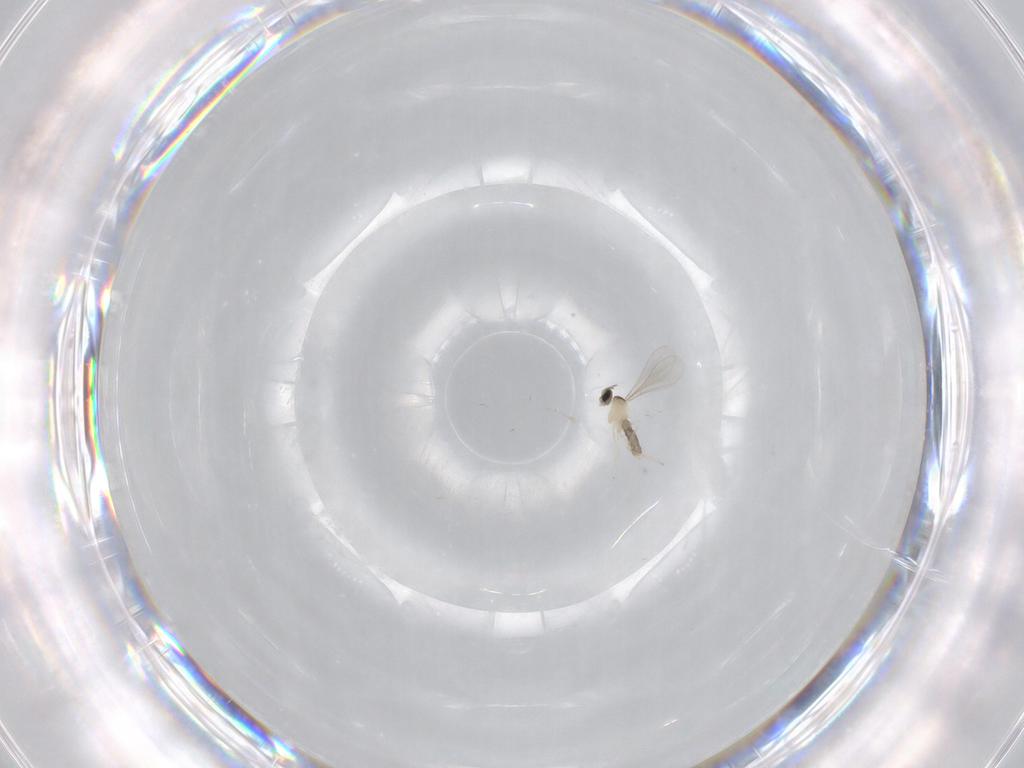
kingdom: Animalia
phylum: Arthropoda
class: Insecta
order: Diptera
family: Cecidomyiidae
